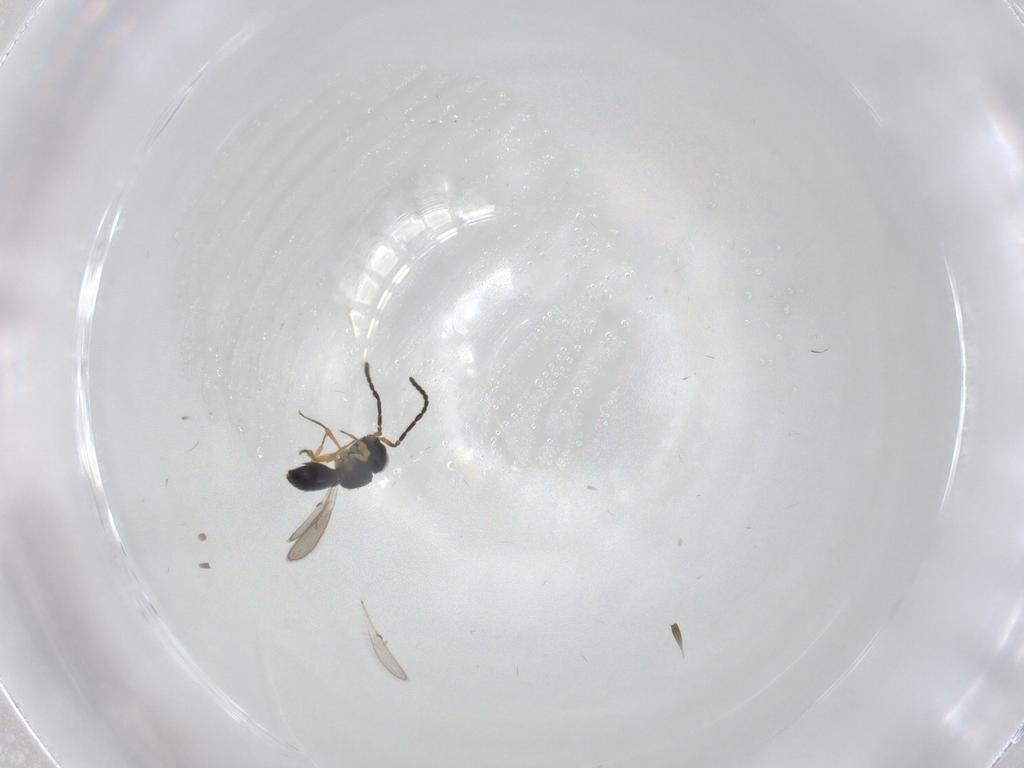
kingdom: Animalia
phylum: Arthropoda
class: Insecta
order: Hymenoptera
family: Scelionidae
